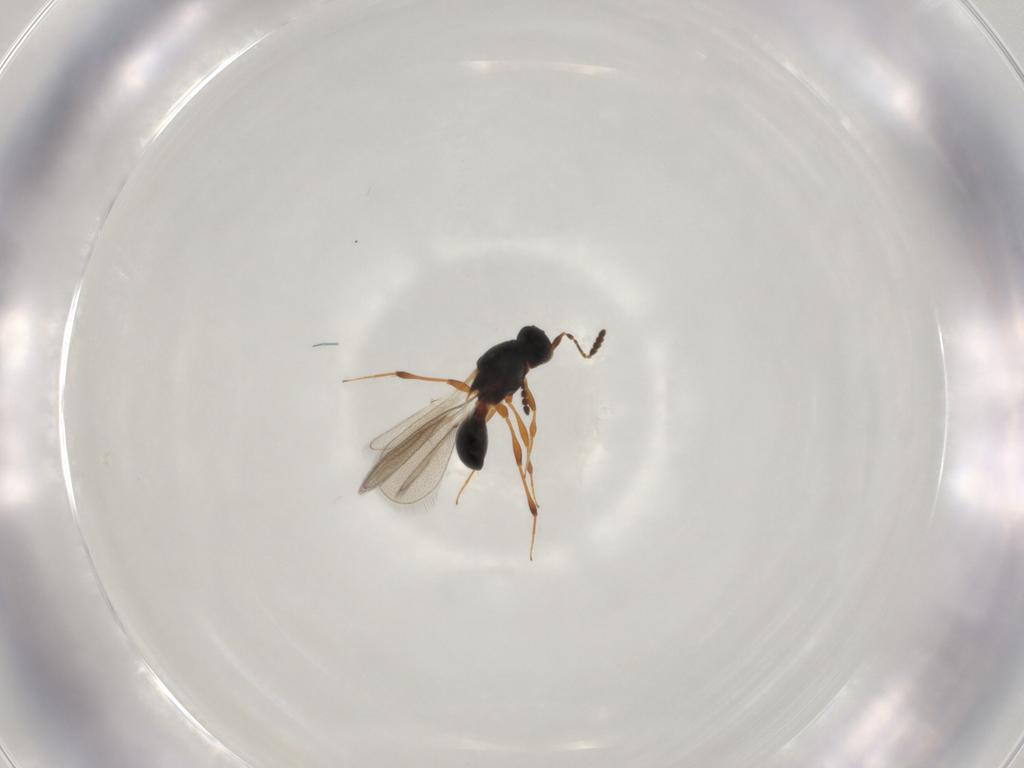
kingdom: Animalia
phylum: Arthropoda
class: Insecta
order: Hymenoptera
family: Platygastridae
